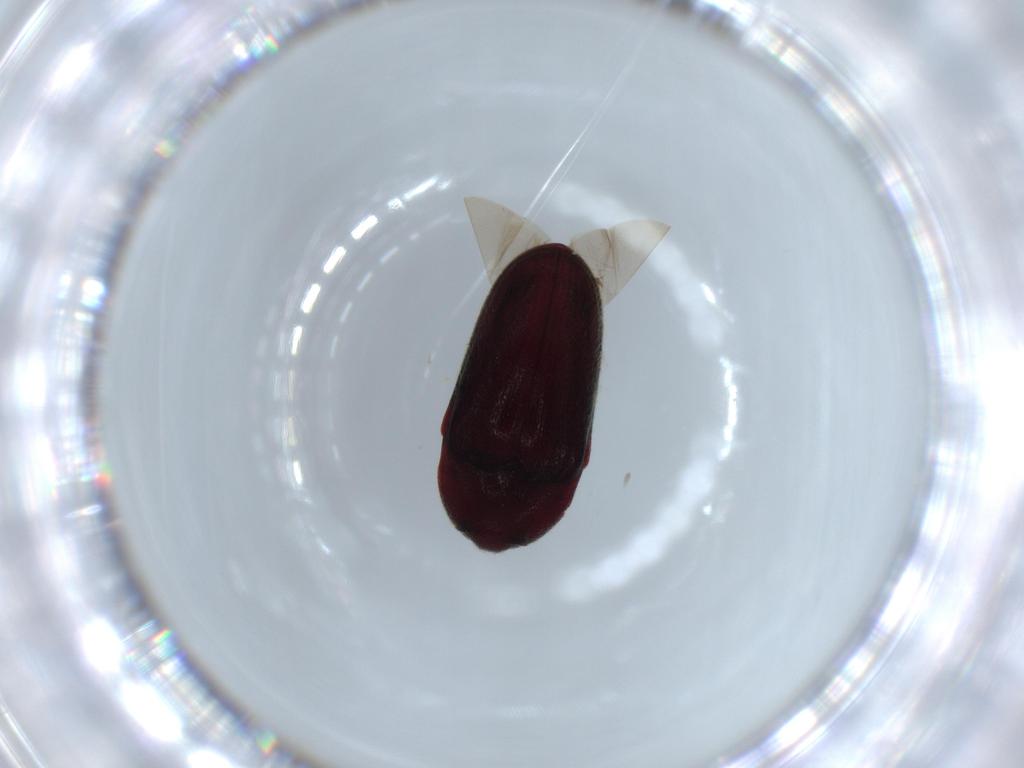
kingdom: Animalia
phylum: Arthropoda
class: Insecta
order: Coleoptera
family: Throscidae
